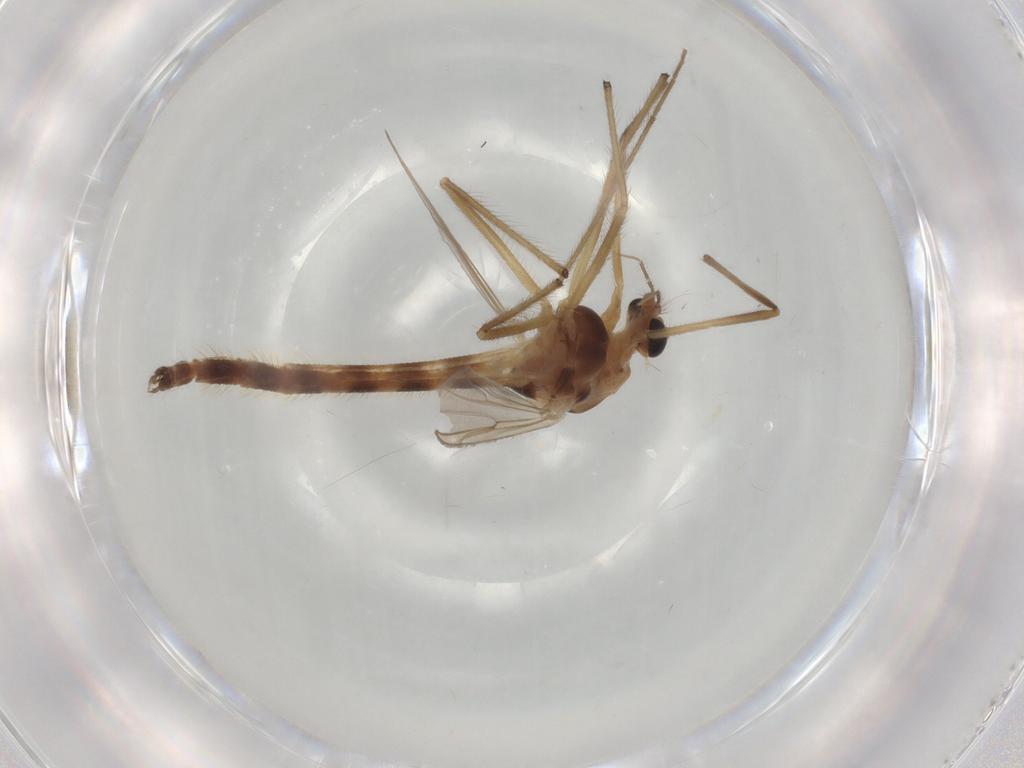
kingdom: Animalia
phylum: Arthropoda
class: Insecta
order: Diptera
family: Chironomidae
